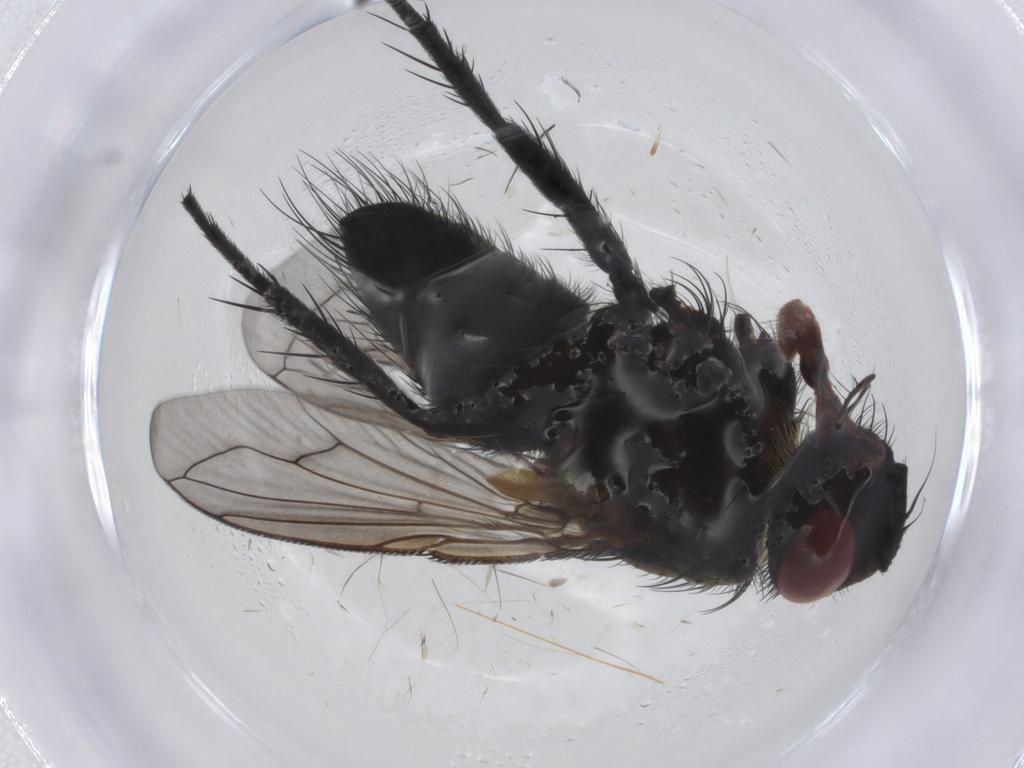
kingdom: Animalia
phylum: Arthropoda
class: Insecta
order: Diptera
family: Tachinidae
